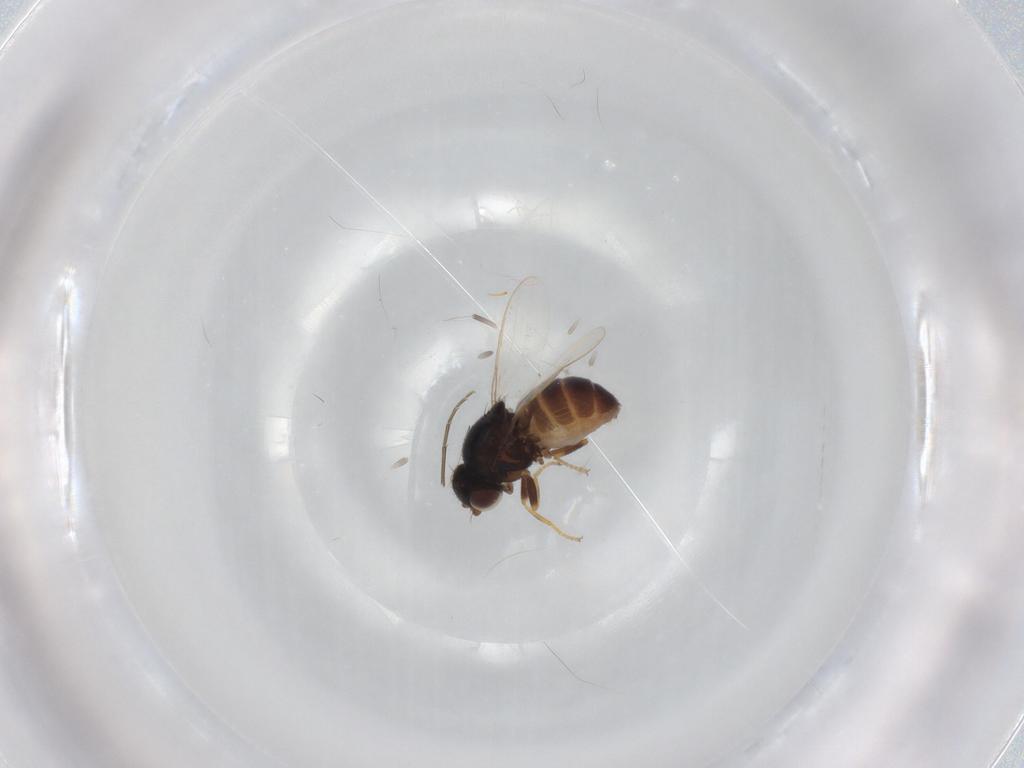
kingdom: Animalia
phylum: Arthropoda
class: Insecta
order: Diptera
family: Chloropidae
